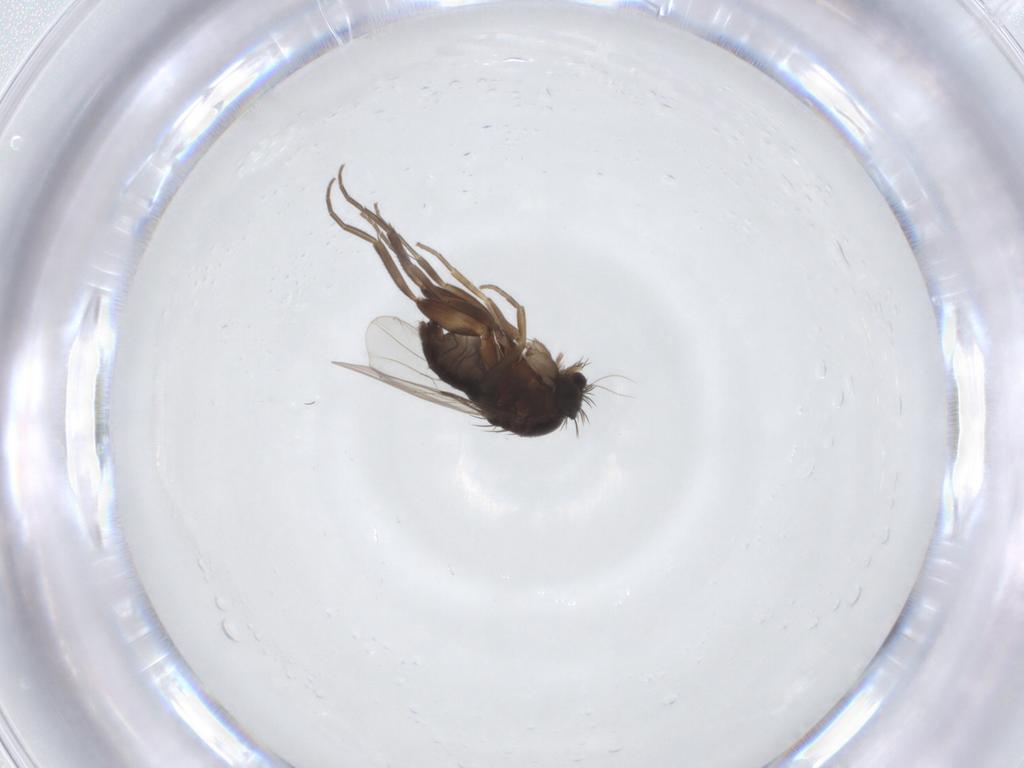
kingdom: Animalia
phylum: Arthropoda
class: Insecta
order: Diptera
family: Phoridae
